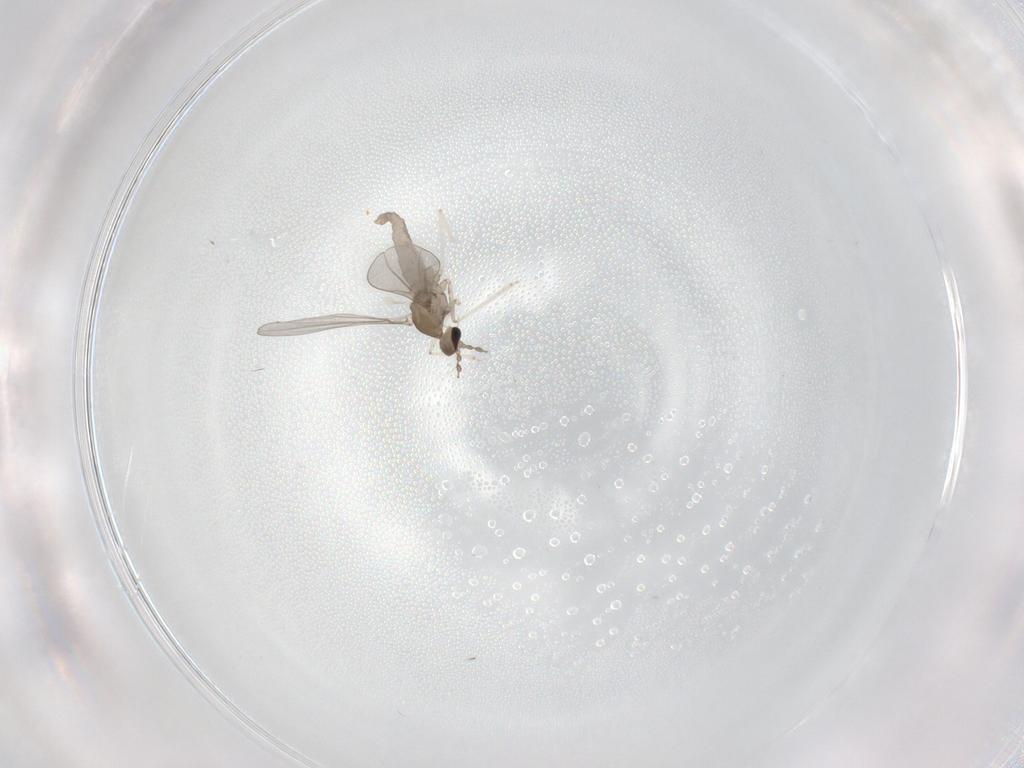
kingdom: Animalia
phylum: Arthropoda
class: Insecta
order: Diptera
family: Cecidomyiidae
